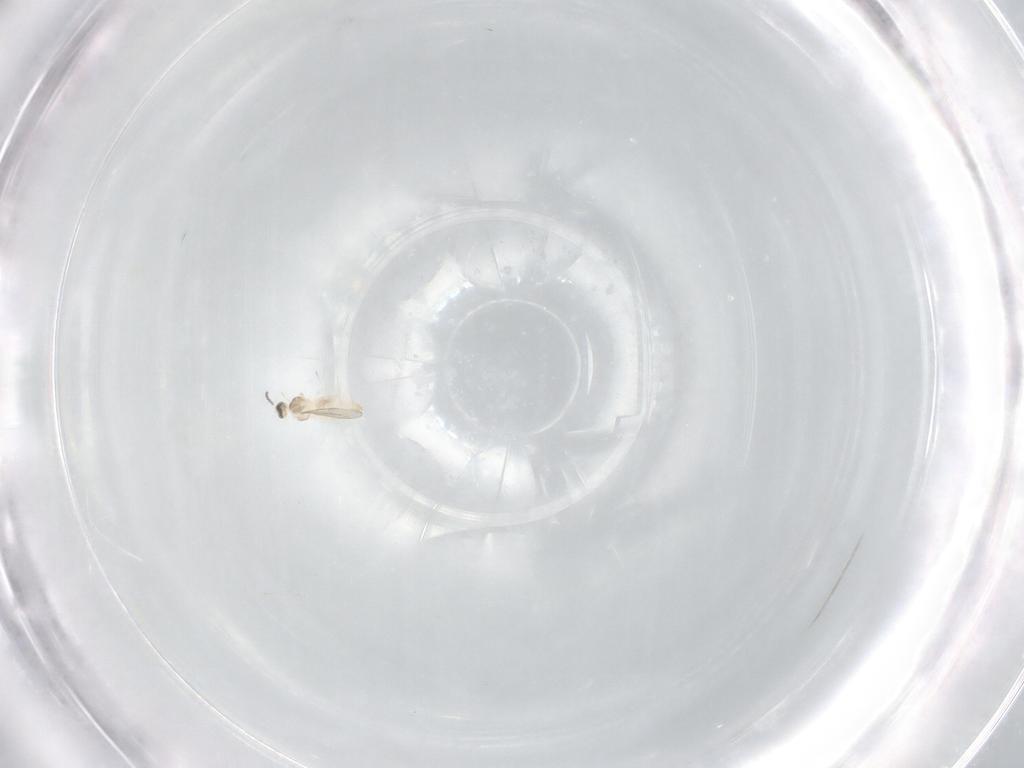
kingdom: Animalia
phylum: Arthropoda
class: Insecta
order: Diptera
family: Cecidomyiidae
